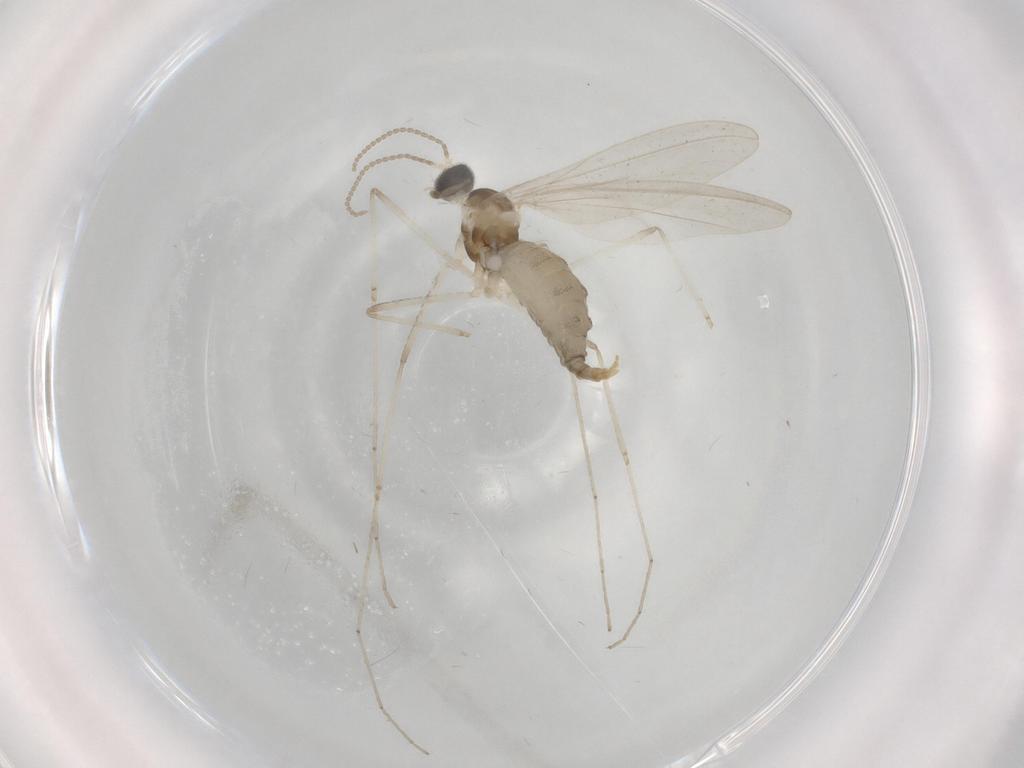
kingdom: Animalia
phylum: Arthropoda
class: Insecta
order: Diptera
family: Cecidomyiidae
